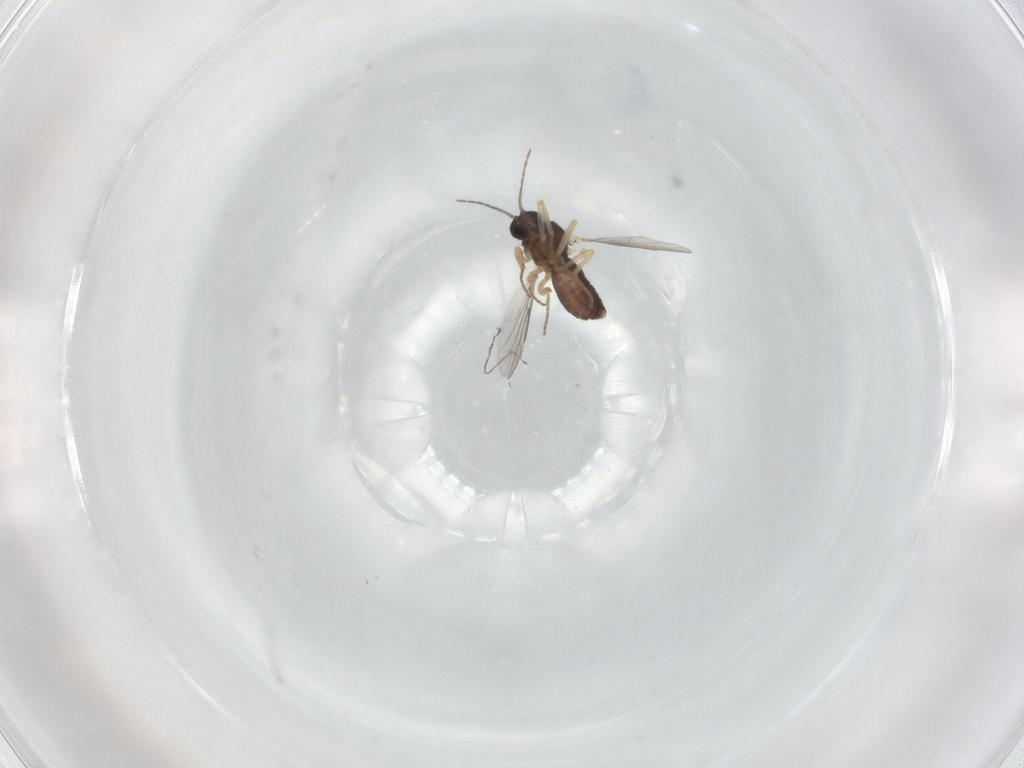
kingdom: Animalia
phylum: Arthropoda
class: Insecta
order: Diptera
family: Ceratopogonidae
